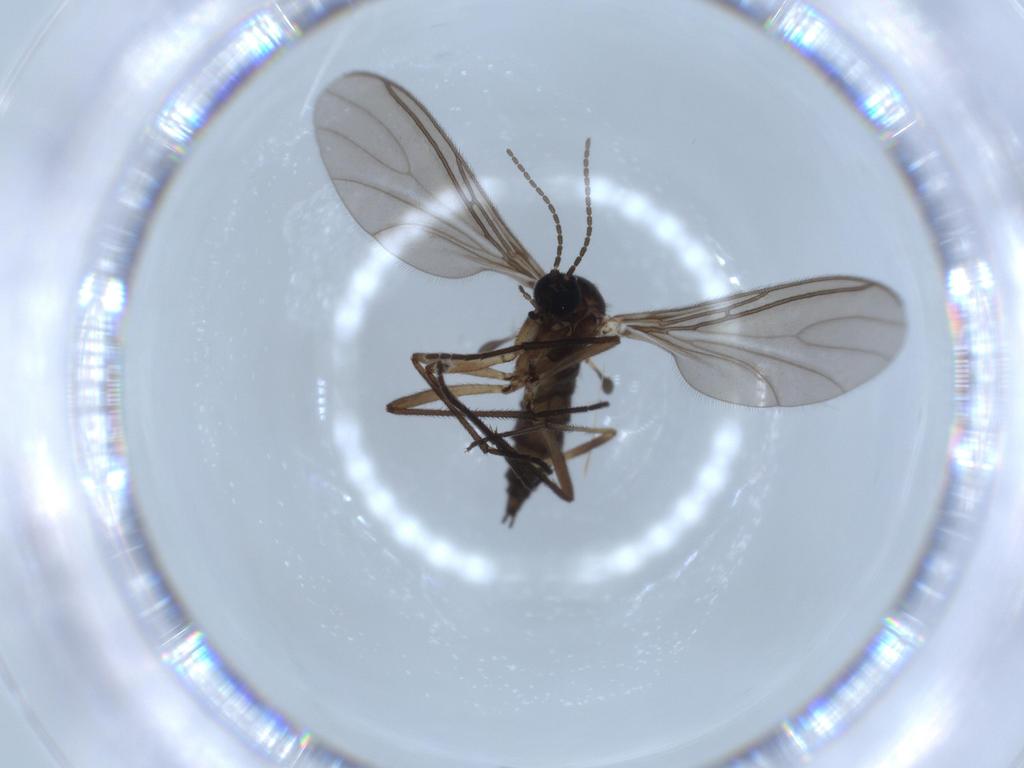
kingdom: Animalia
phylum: Arthropoda
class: Insecta
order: Diptera
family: Sciaridae
